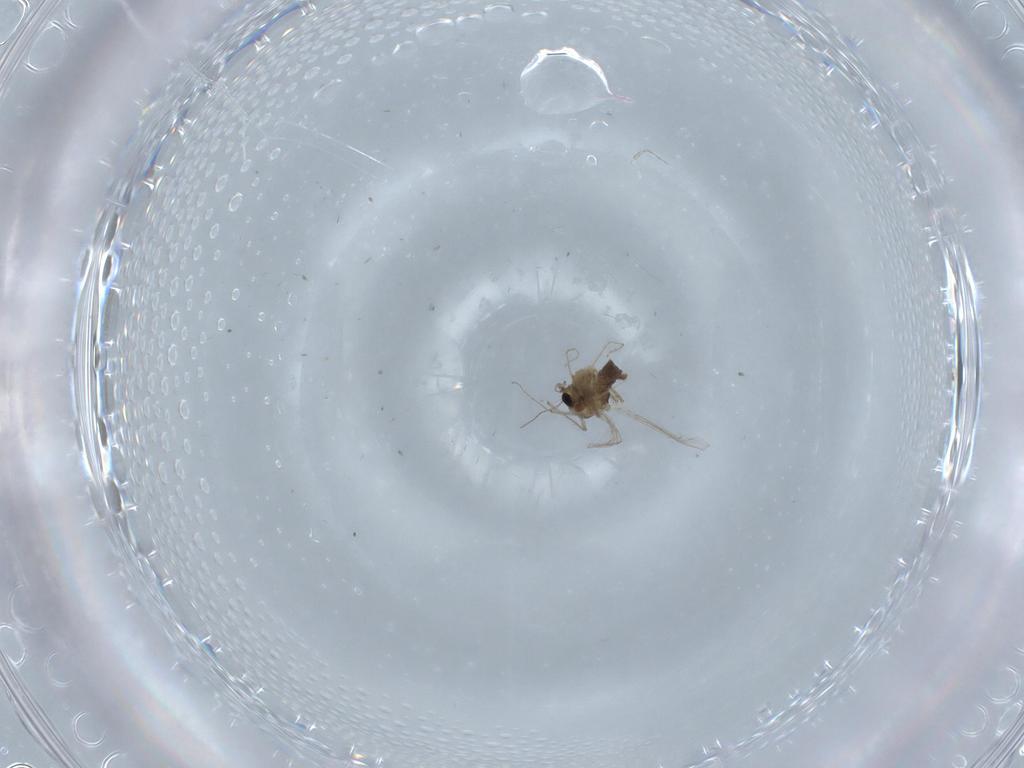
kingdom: Animalia
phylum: Arthropoda
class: Insecta
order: Diptera
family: Chironomidae
